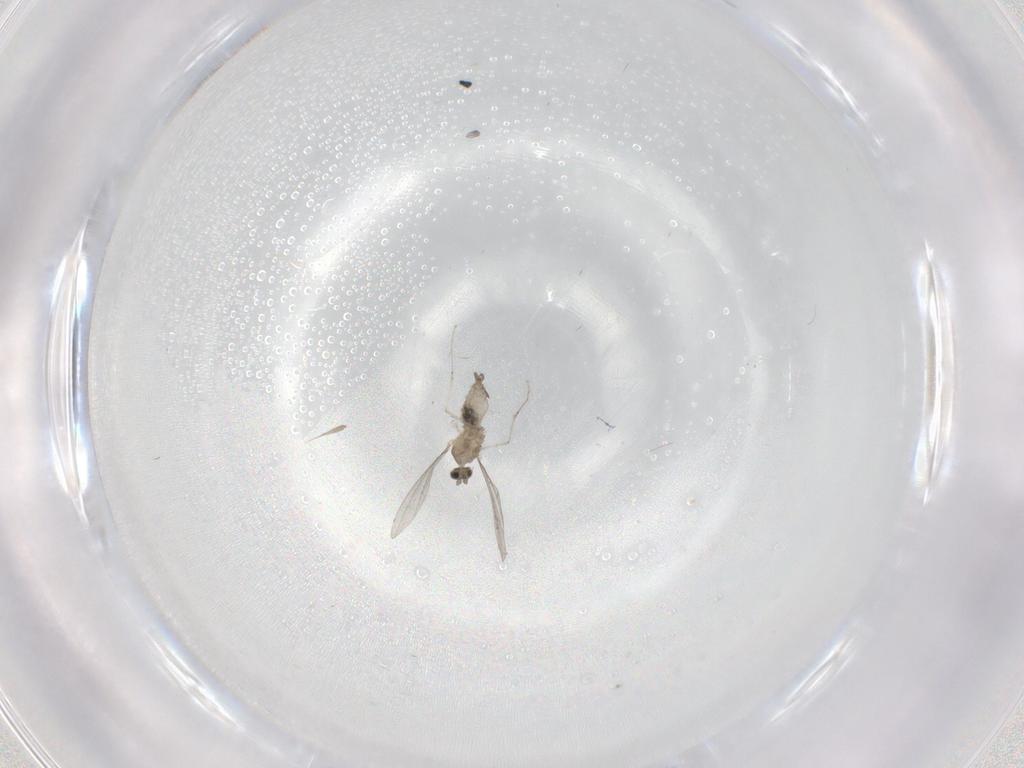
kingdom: Animalia
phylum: Arthropoda
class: Insecta
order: Diptera
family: Cecidomyiidae
